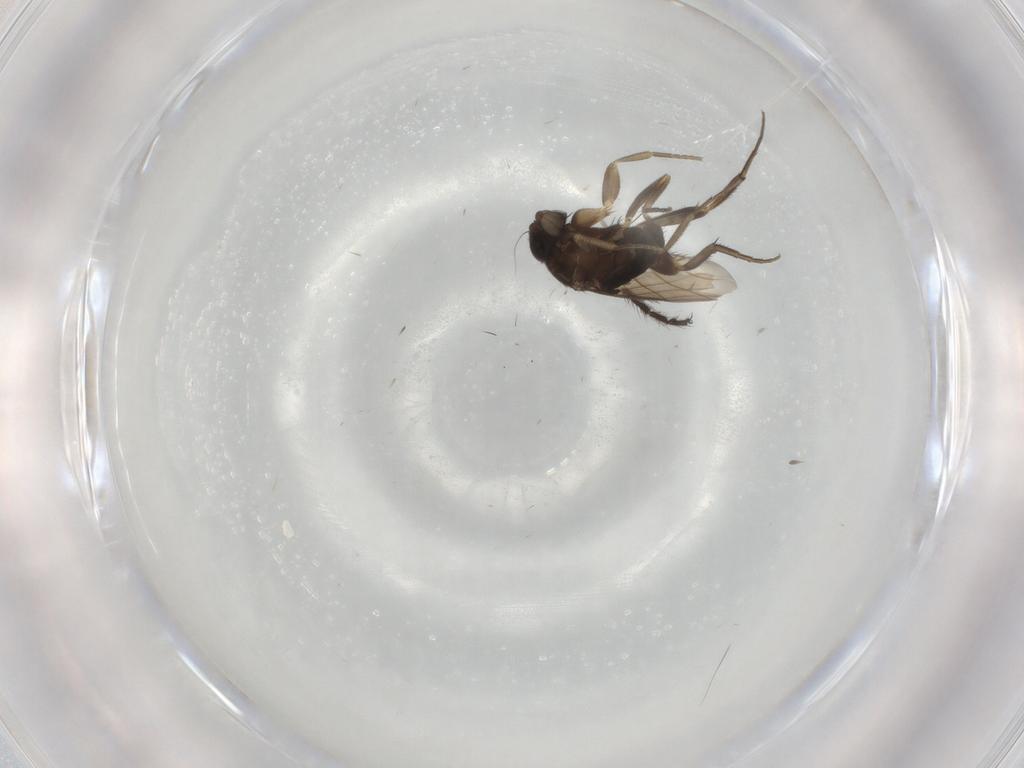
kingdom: Animalia
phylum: Arthropoda
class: Insecta
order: Diptera
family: Phoridae
